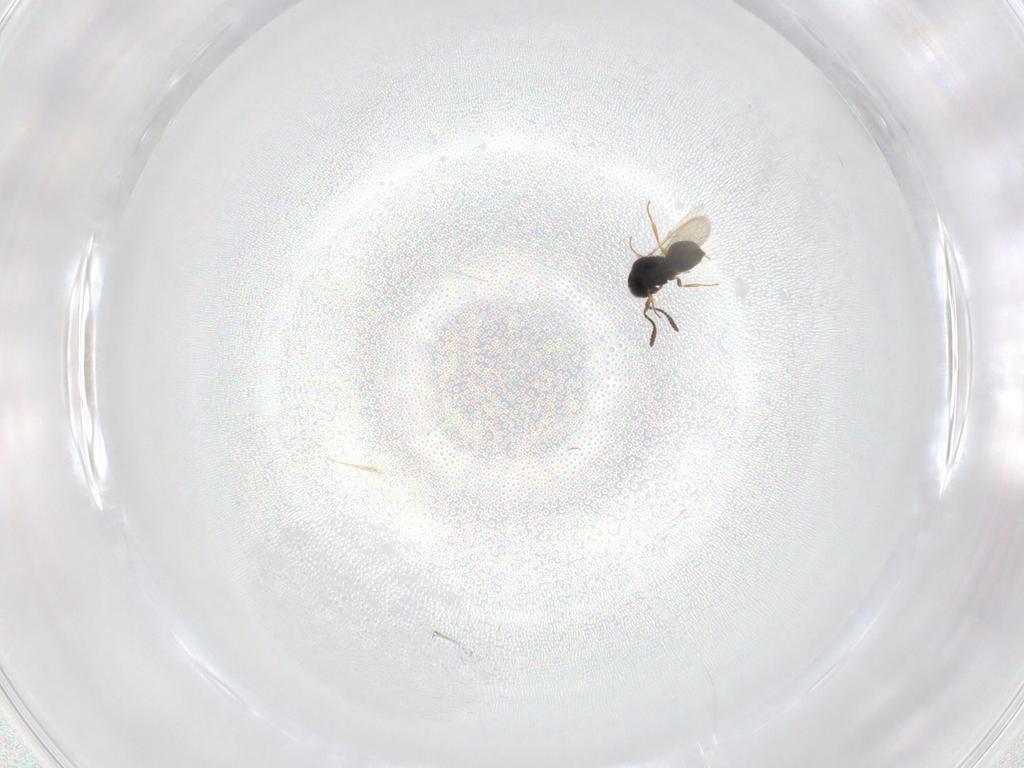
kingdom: Animalia
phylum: Arthropoda
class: Insecta
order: Hymenoptera
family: Scelionidae
